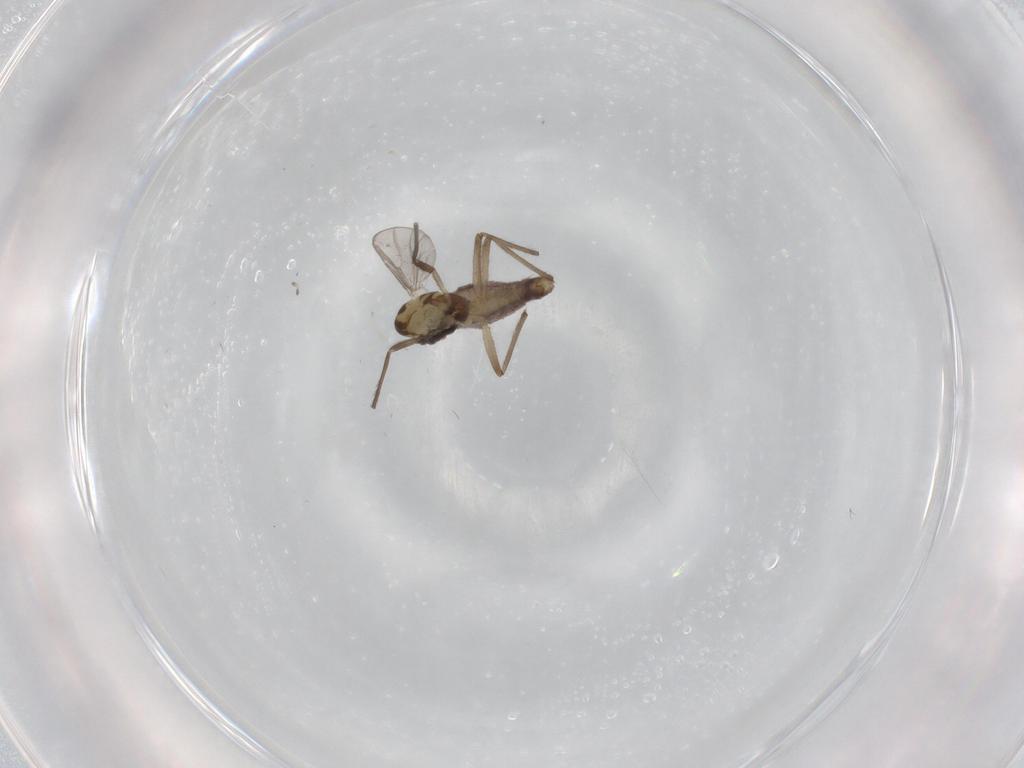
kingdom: Animalia
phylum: Arthropoda
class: Insecta
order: Diptera
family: Chironomidae
